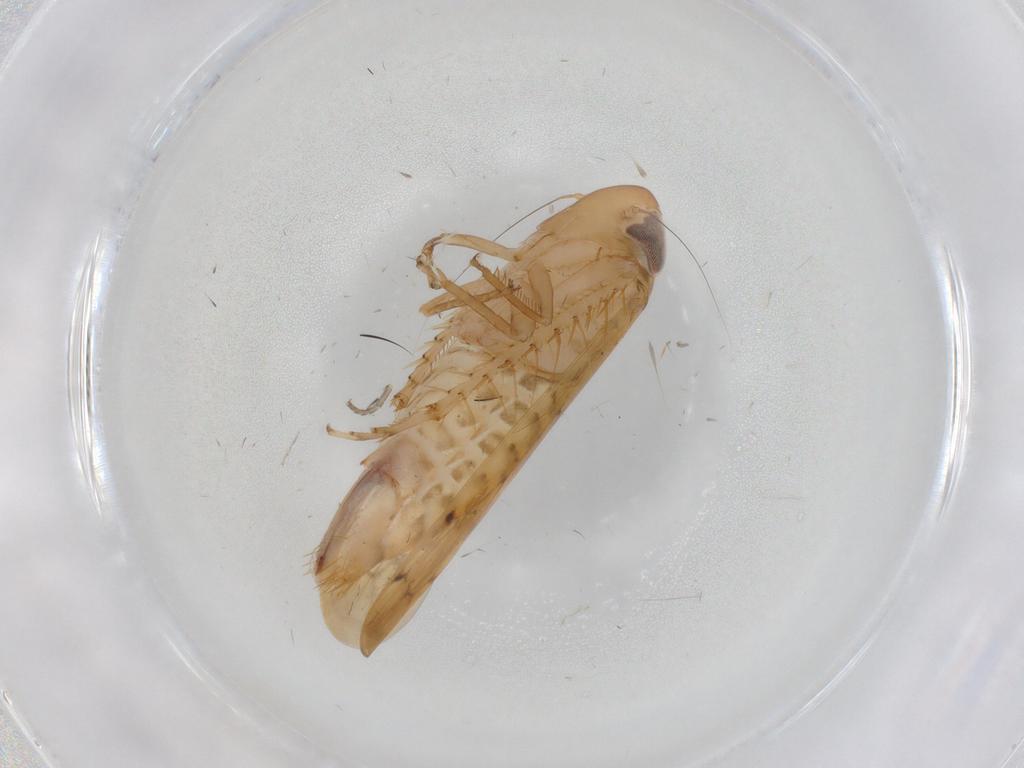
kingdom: Animalia
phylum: Arthropoda
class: Insecta
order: Hemiptera
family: Cicadellidae
